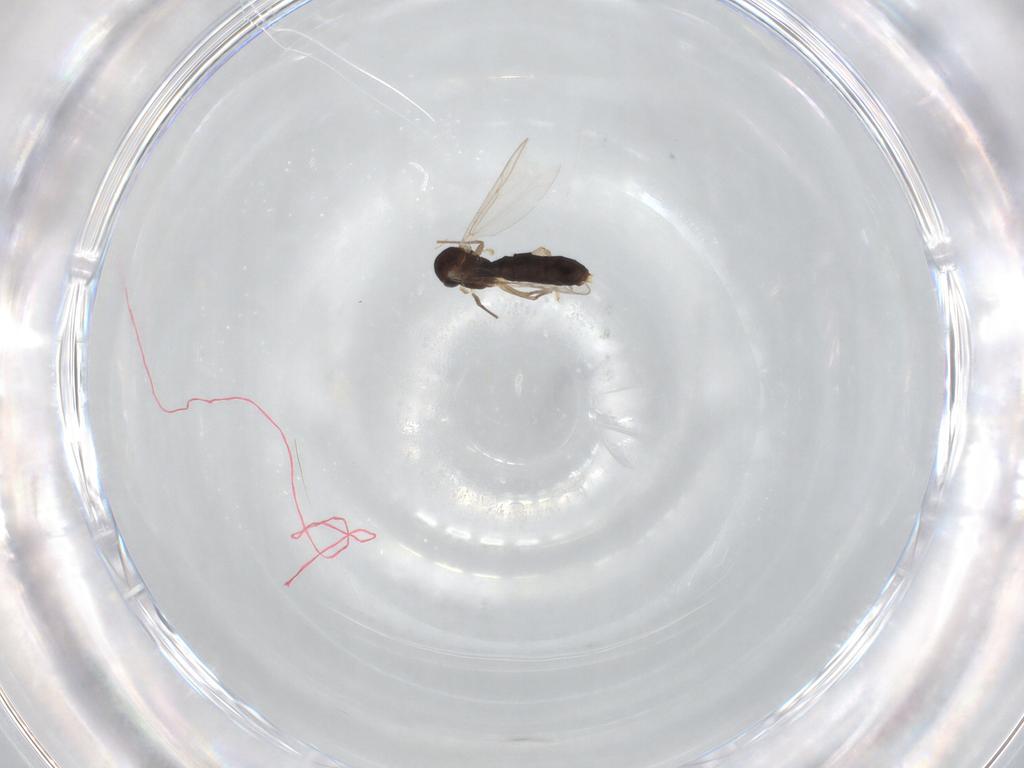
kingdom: Animalia
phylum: Arthropoda
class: Insecta
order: Diptera
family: Chironomidae
